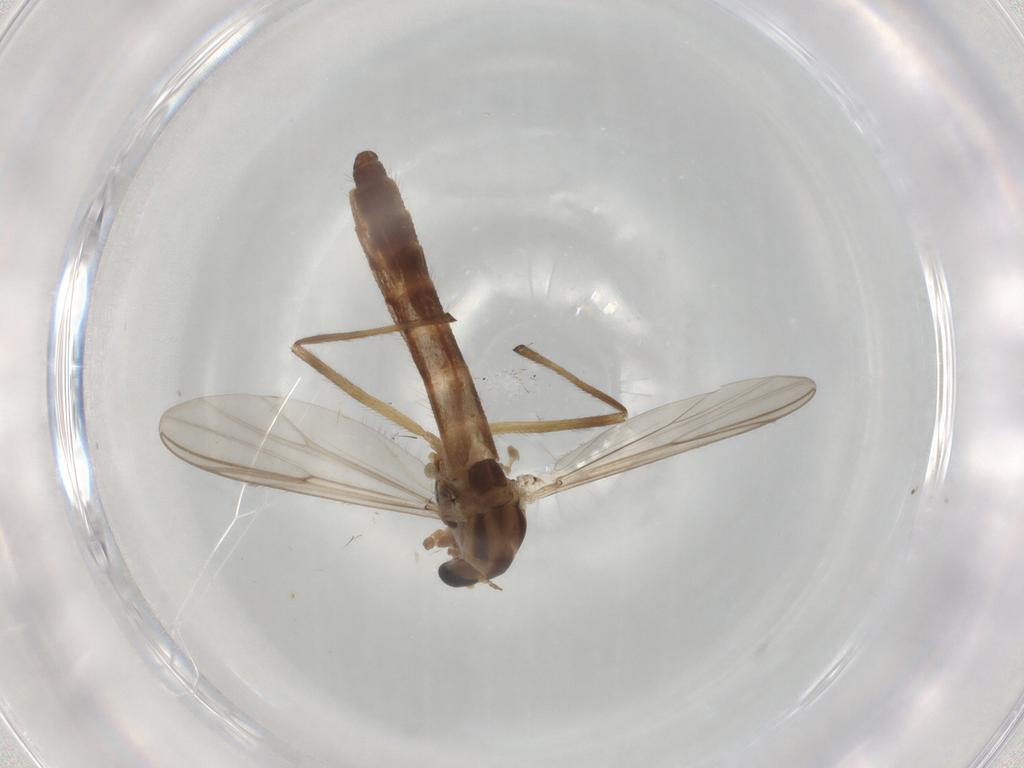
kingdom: Animalia
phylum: Arthropoda
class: Insecta
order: Diptera
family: Chironomidae
